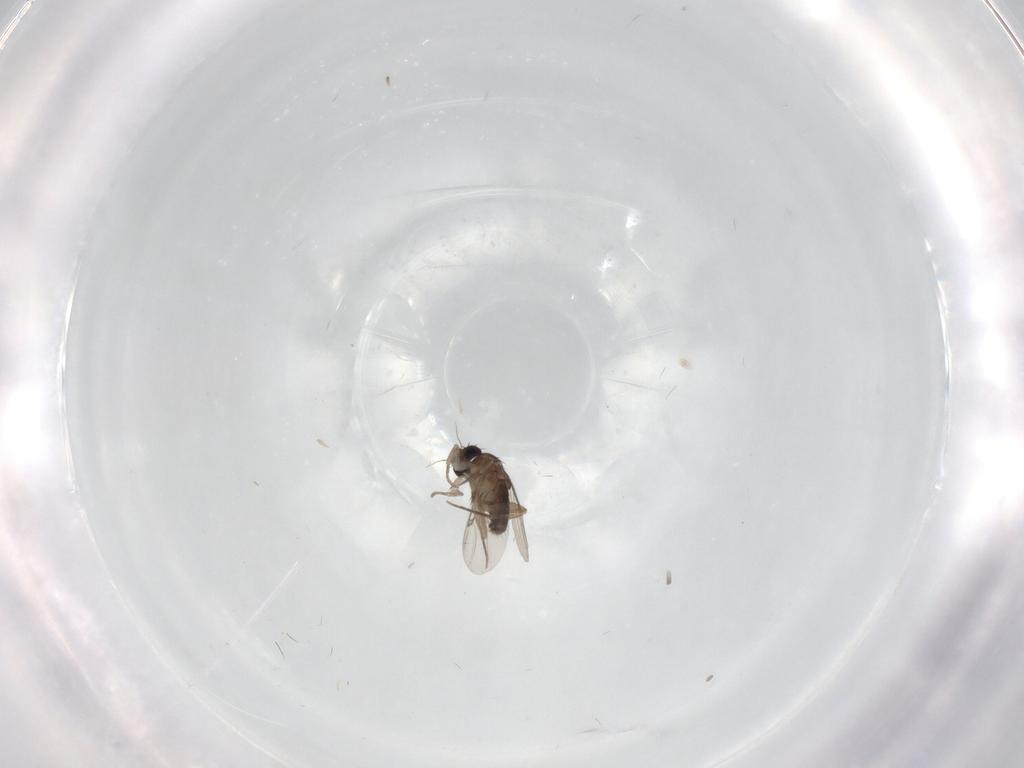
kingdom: Animalia
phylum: Arthropoda
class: Insecta
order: Diptera
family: Phoridae
